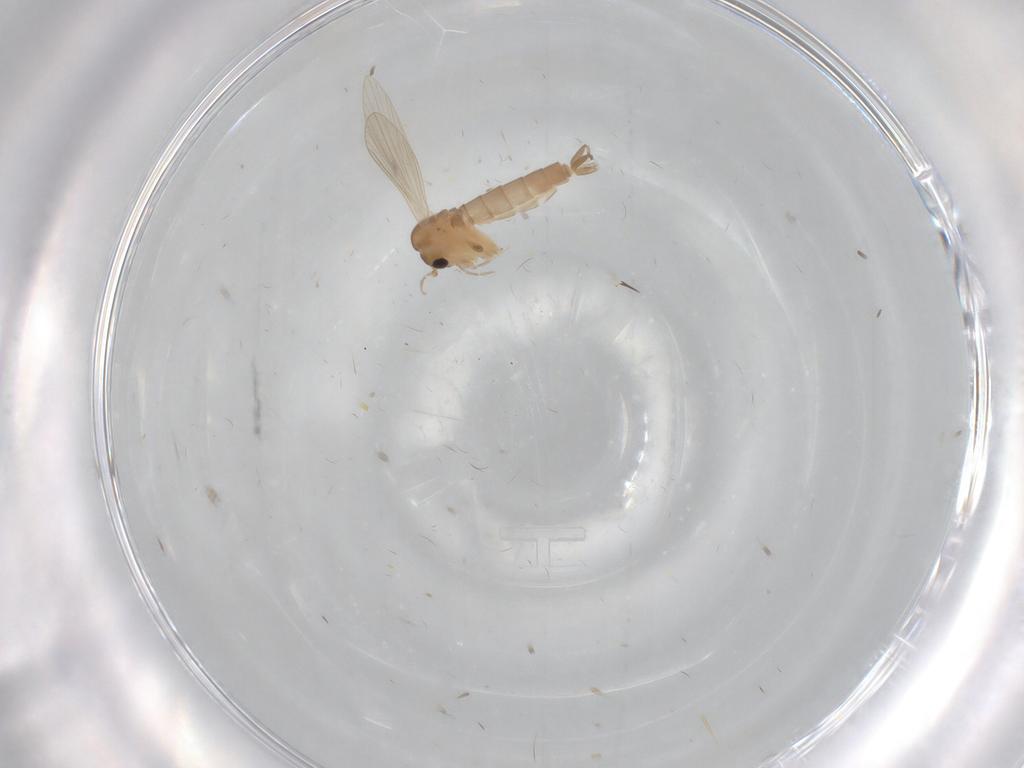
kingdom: Animalia
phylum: Arthropoda
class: Insecta
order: Diptera
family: Psychodidae
